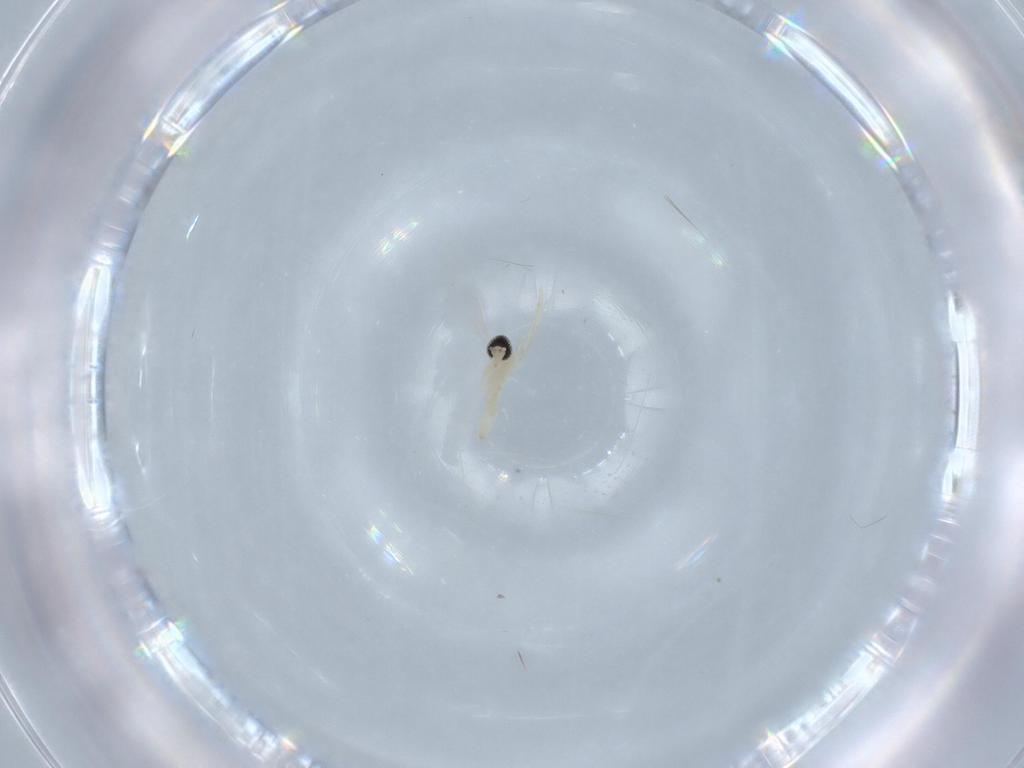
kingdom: Animalia
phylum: Arthropoda
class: Insecta
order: Diptera
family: Cecidomyiidae
